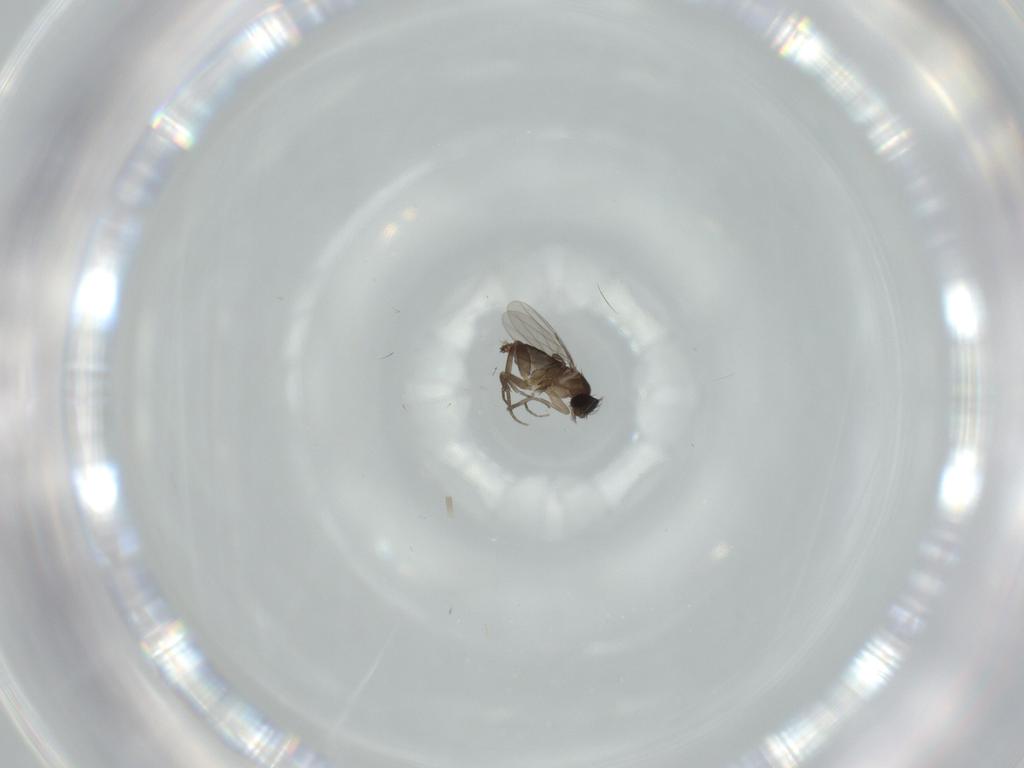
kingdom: Animalia
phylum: Arthropoda
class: Insecta
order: Diptera
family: Phoridae
